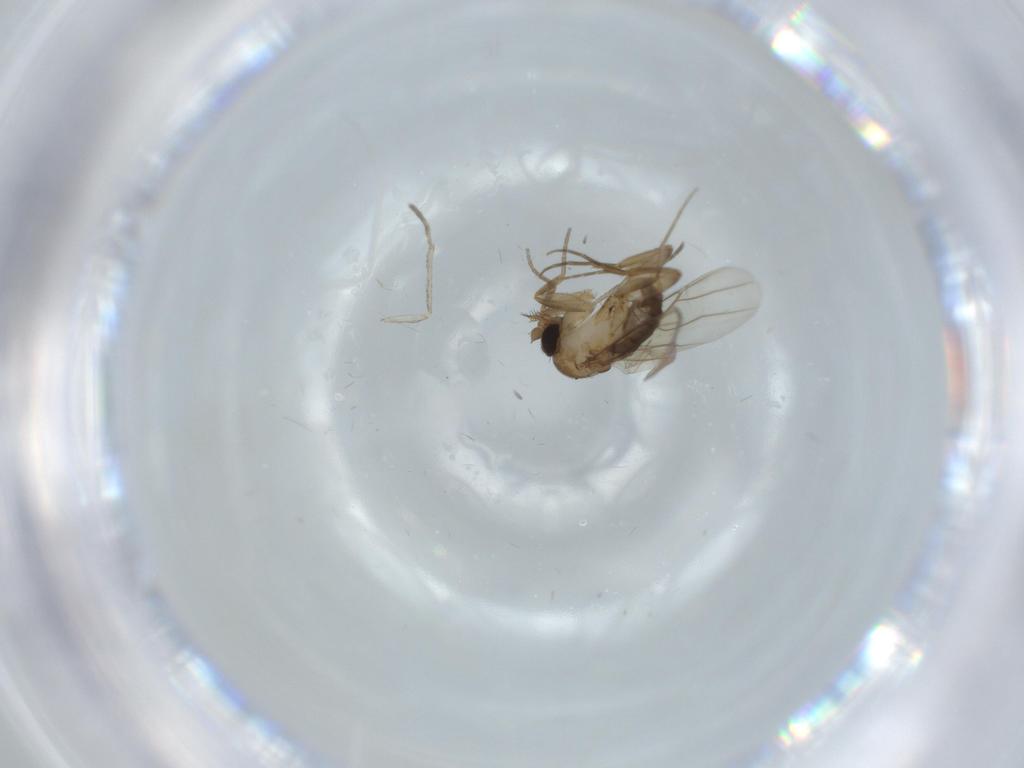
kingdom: Animalia
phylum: Arthropoda
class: Insecta
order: Diptera
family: Phoridae
